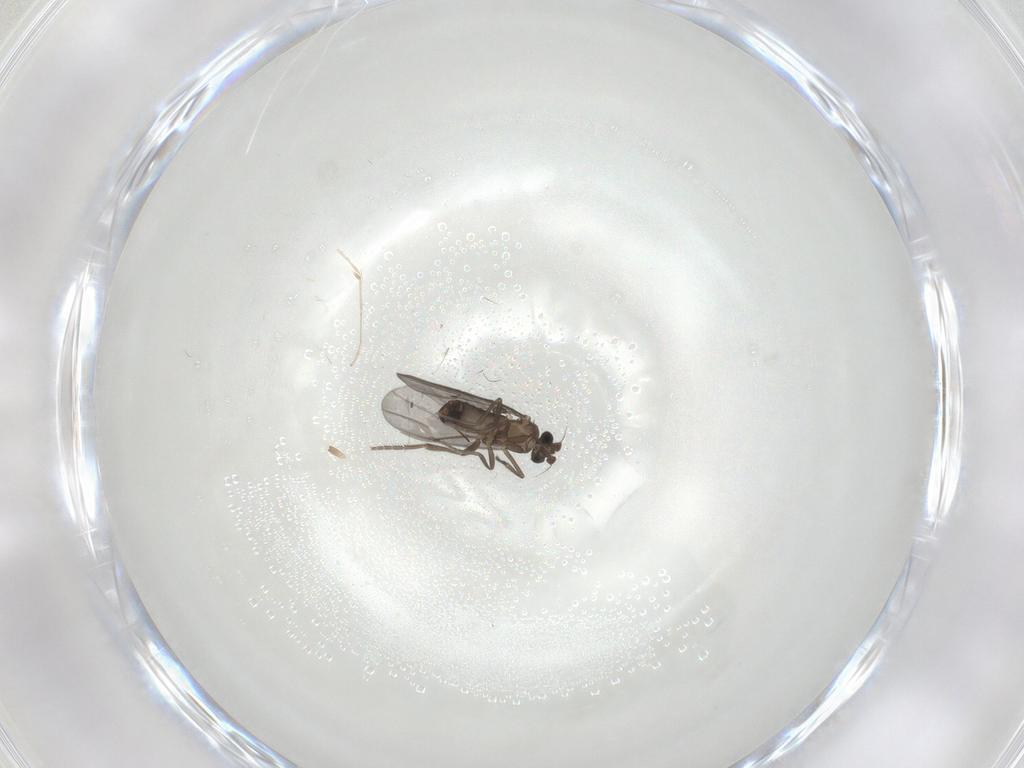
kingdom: Animalia
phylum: Arthropoda
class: Insecta
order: Diptera
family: Phoridae
